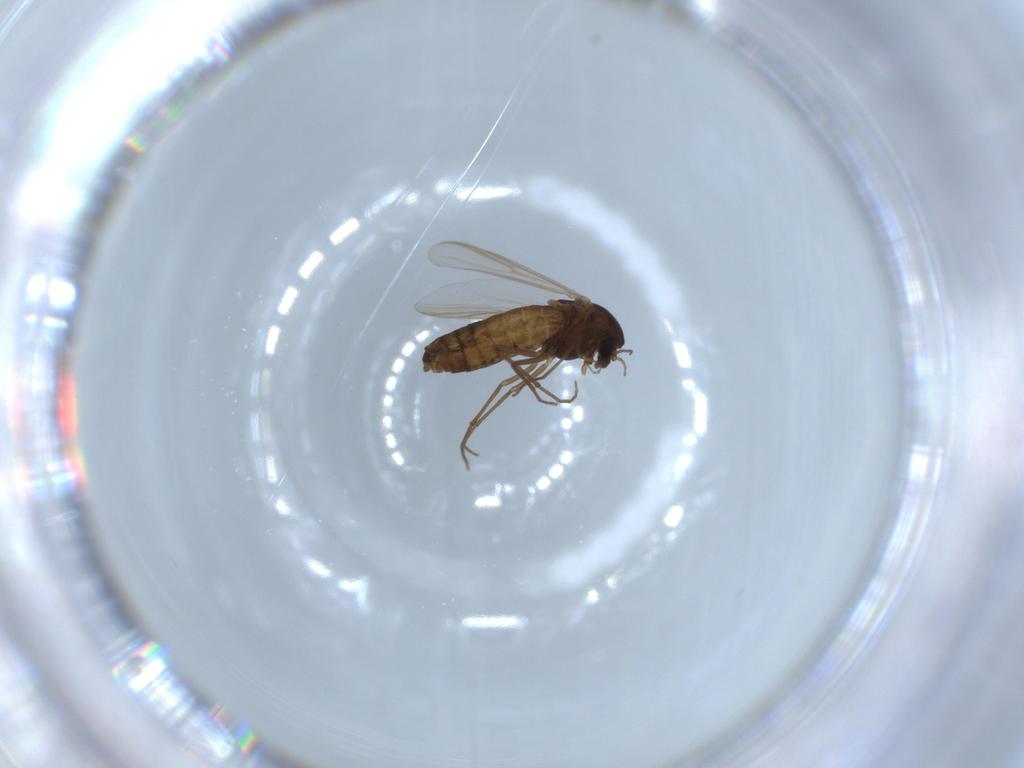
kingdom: Animalia
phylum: Arthropoda
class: Insecta
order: Diptera
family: Chironomidae
